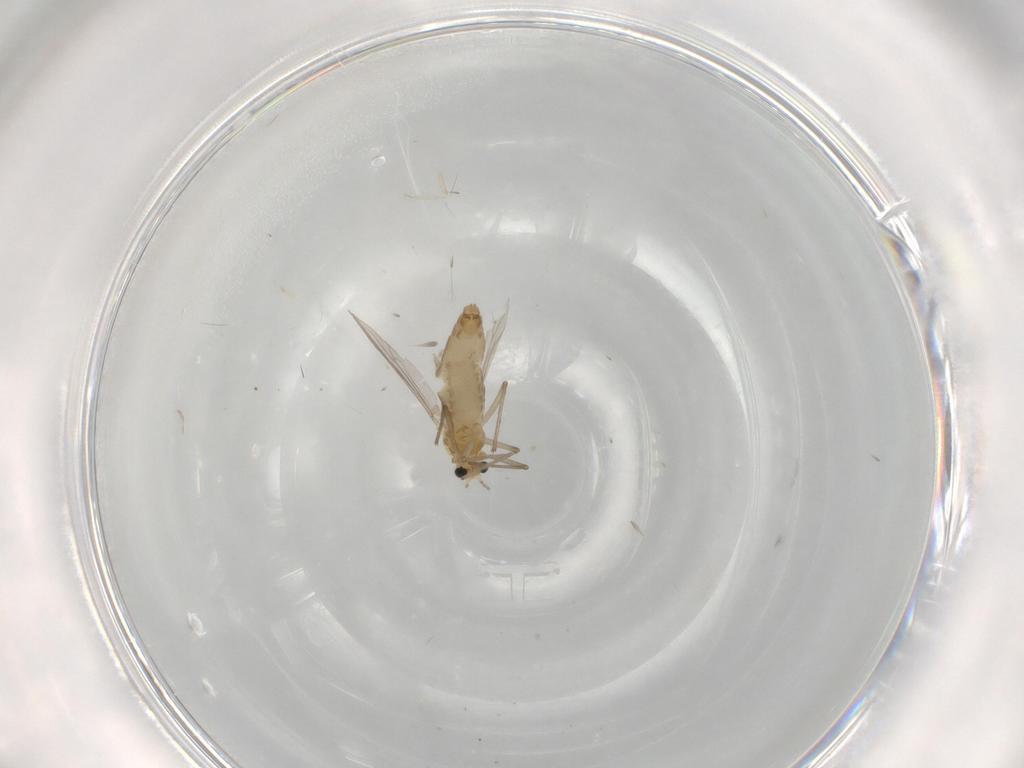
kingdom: Animalia
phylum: Arthropoda
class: Insecta
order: Diptera
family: Chironomidae
